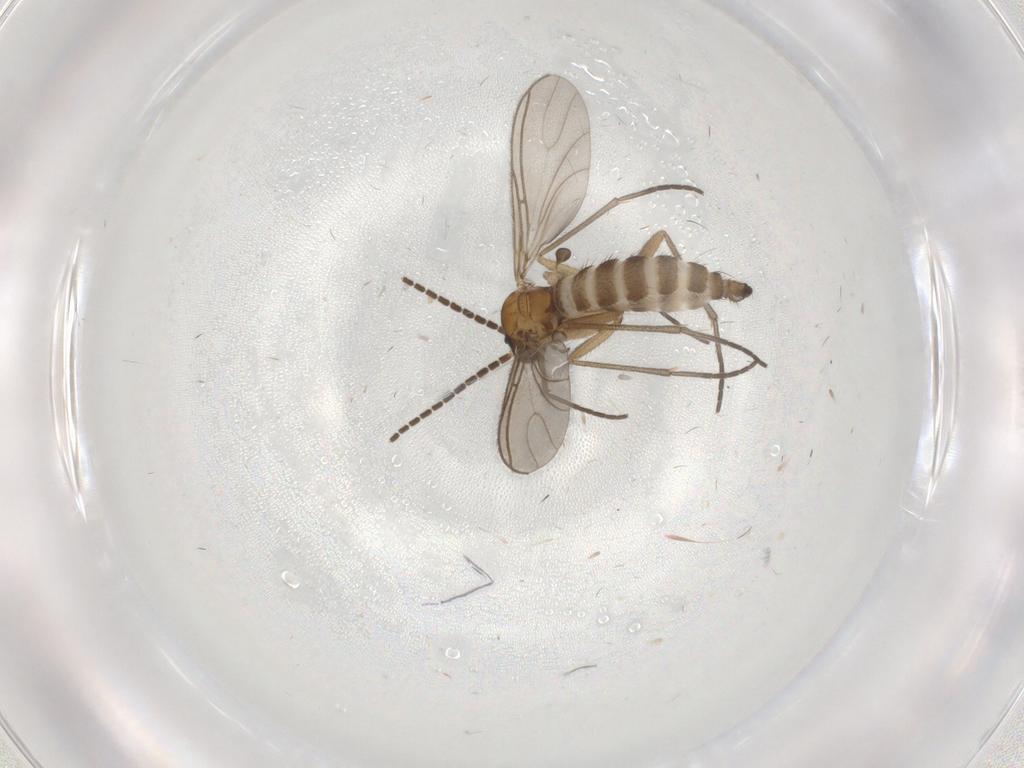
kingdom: Animalia
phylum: Arthropoda
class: Insecta
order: Diptera
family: Sciaridae
